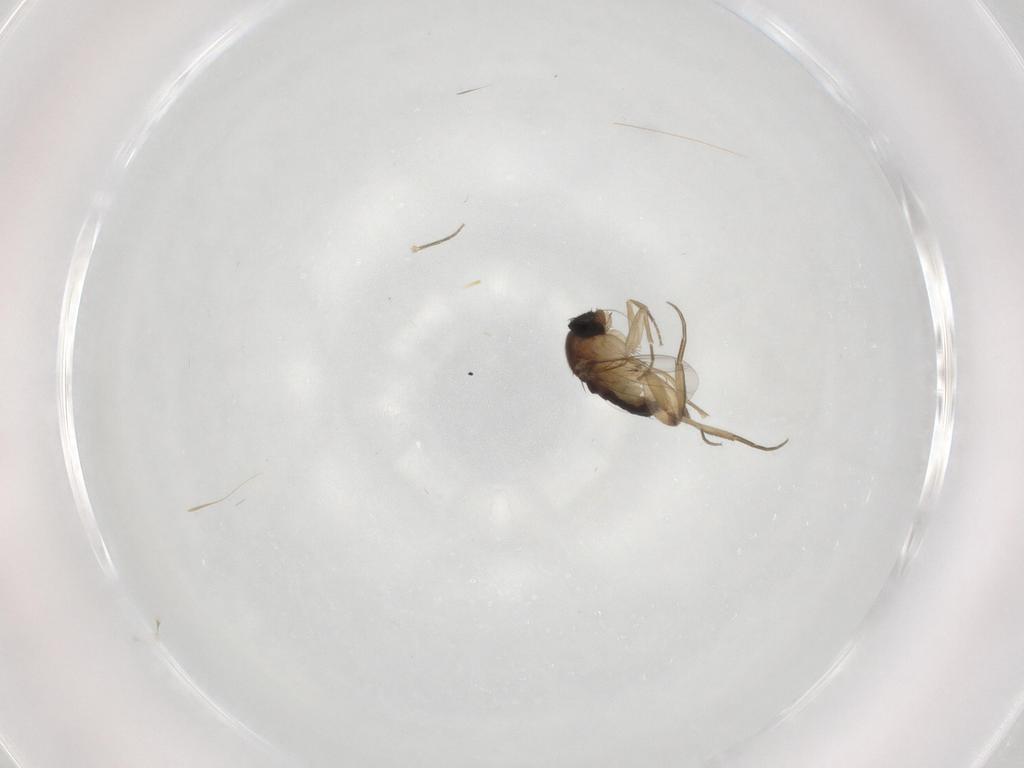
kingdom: Animalia
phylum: Arthropoda
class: Insecta
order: Diptera
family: Phoridae
